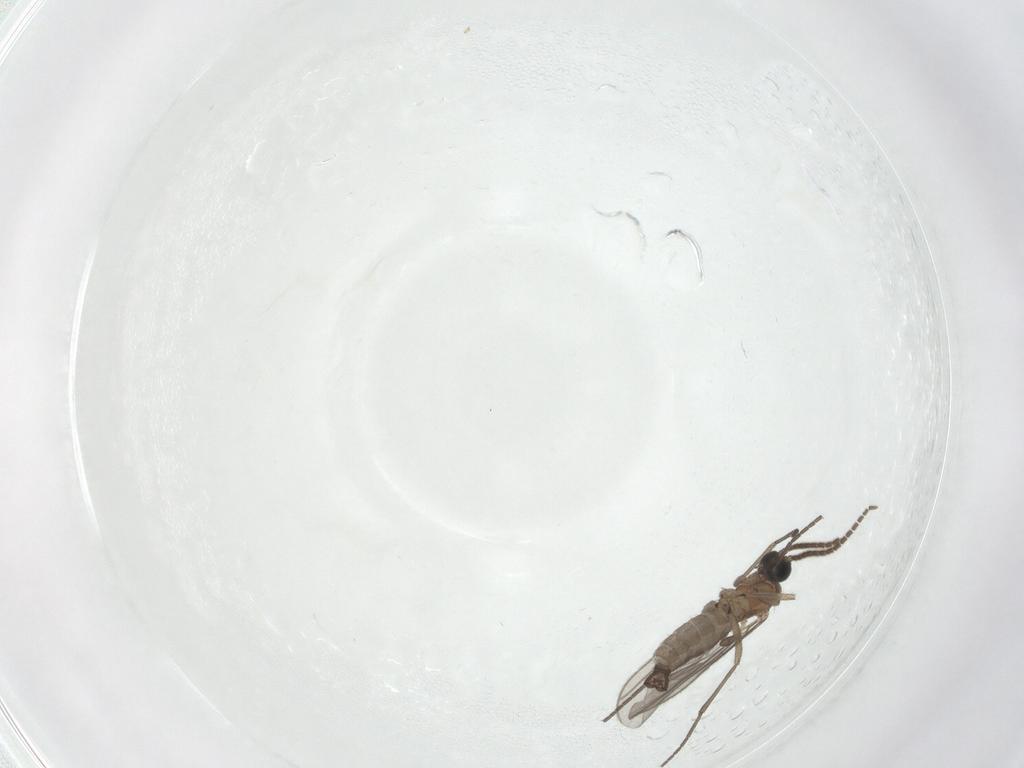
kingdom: Animalia
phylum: Arthropoda
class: Insecta
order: Diptera
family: Sciaridae
